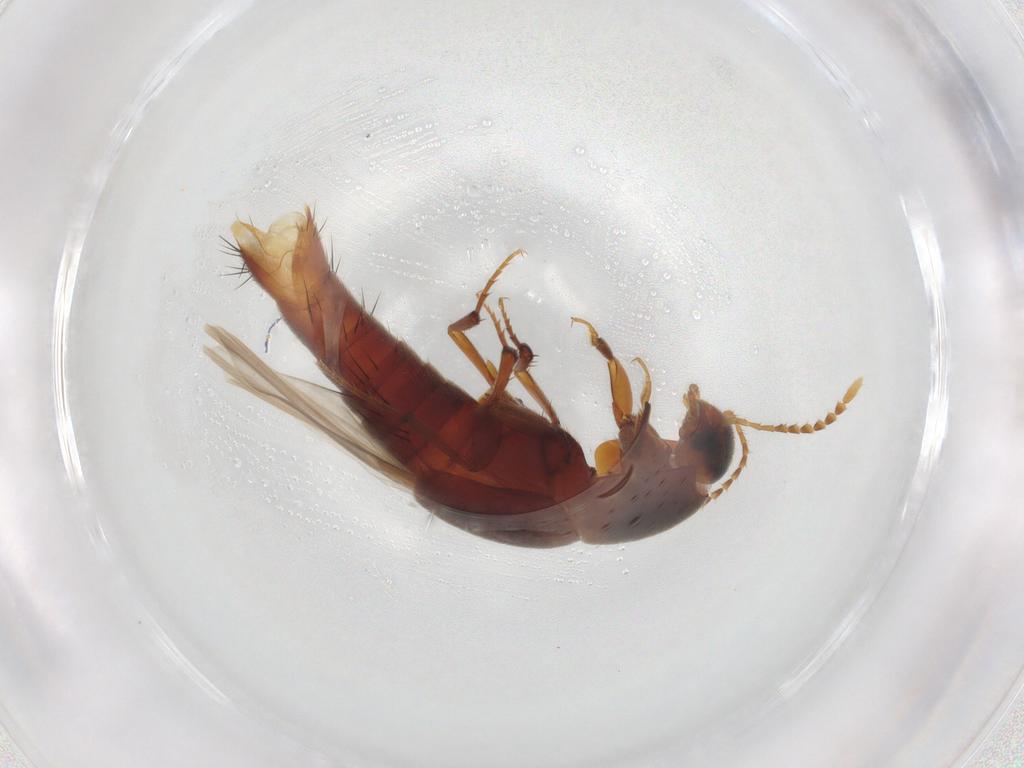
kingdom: Animalia
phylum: Arthropoda
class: Insecta
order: Coleoptera
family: Staphylinidae
